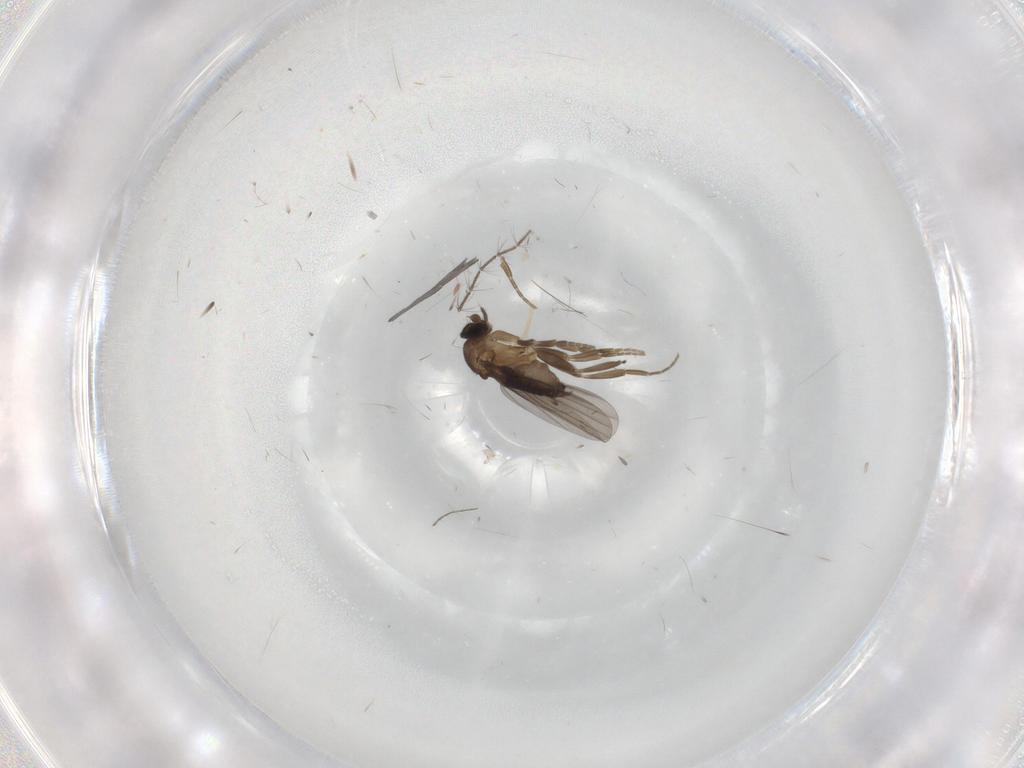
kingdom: Animalia
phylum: Arthropoda
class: Insecta
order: Diptera
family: Phoridae
